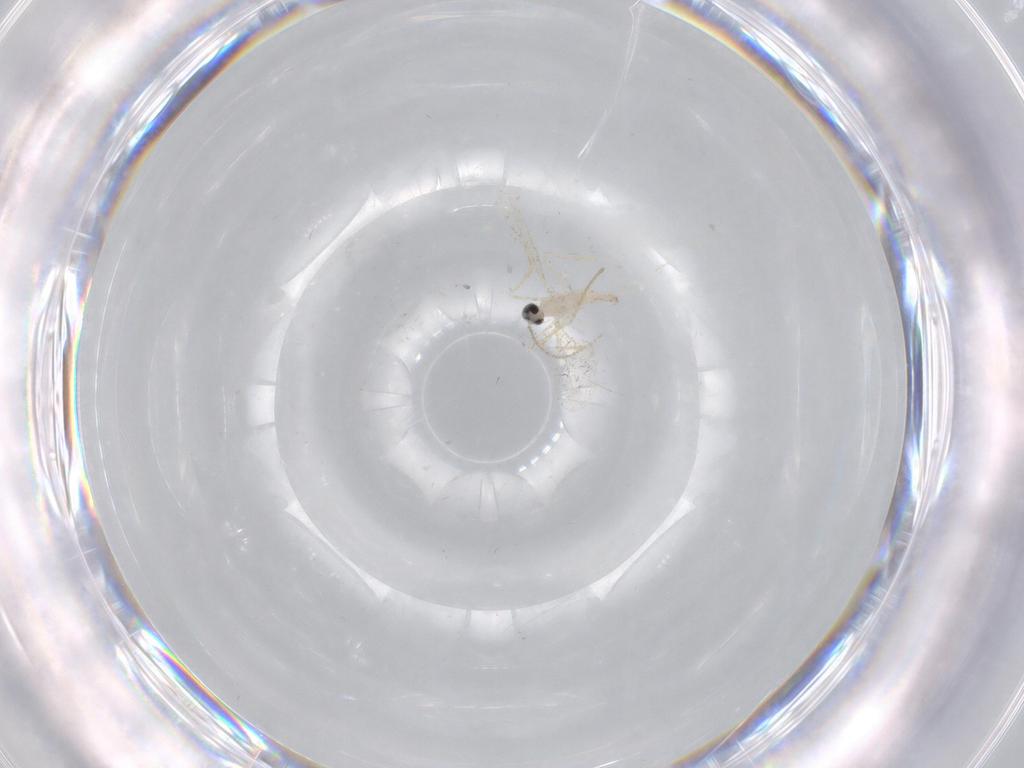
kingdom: Animalia
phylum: Arthropoda
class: Insecta
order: Diptera
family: Cecidomyiidae
